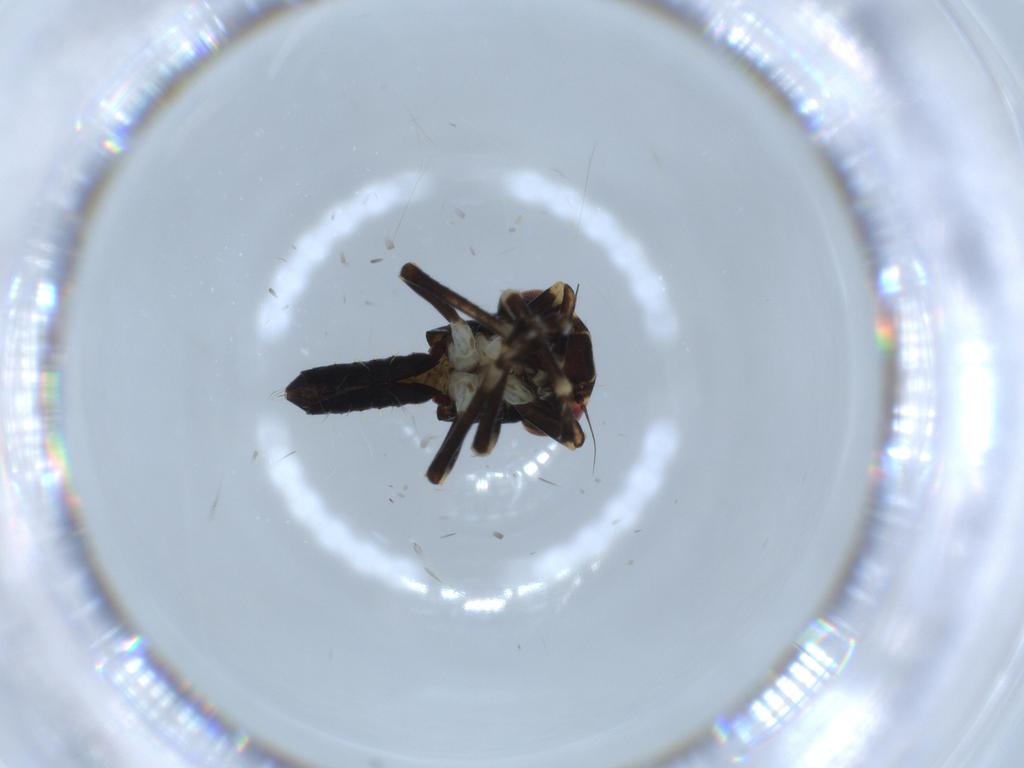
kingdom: Animalia
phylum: Arthropoda
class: Insecta
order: Hemiptera
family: Cicadellidae
